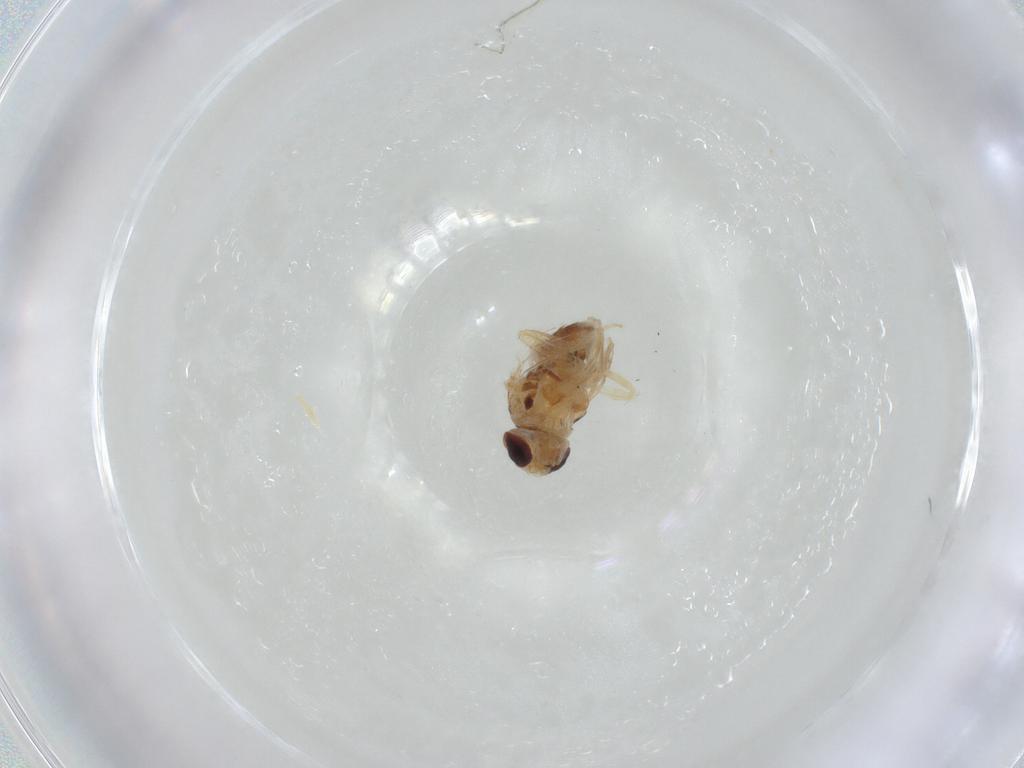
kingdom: Animalia
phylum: Arthropoda
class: Insecta
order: Diptera
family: Chloropidae
